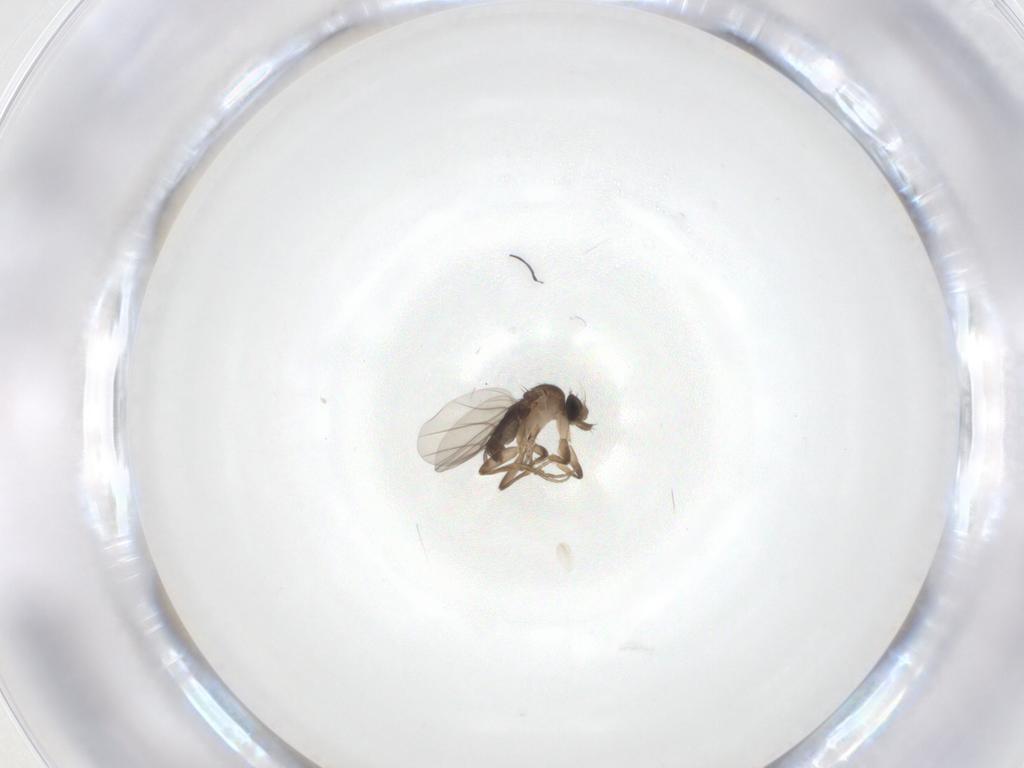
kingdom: Animalia
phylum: Arthropoda
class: Insecta
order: Diptera
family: Phoridae
